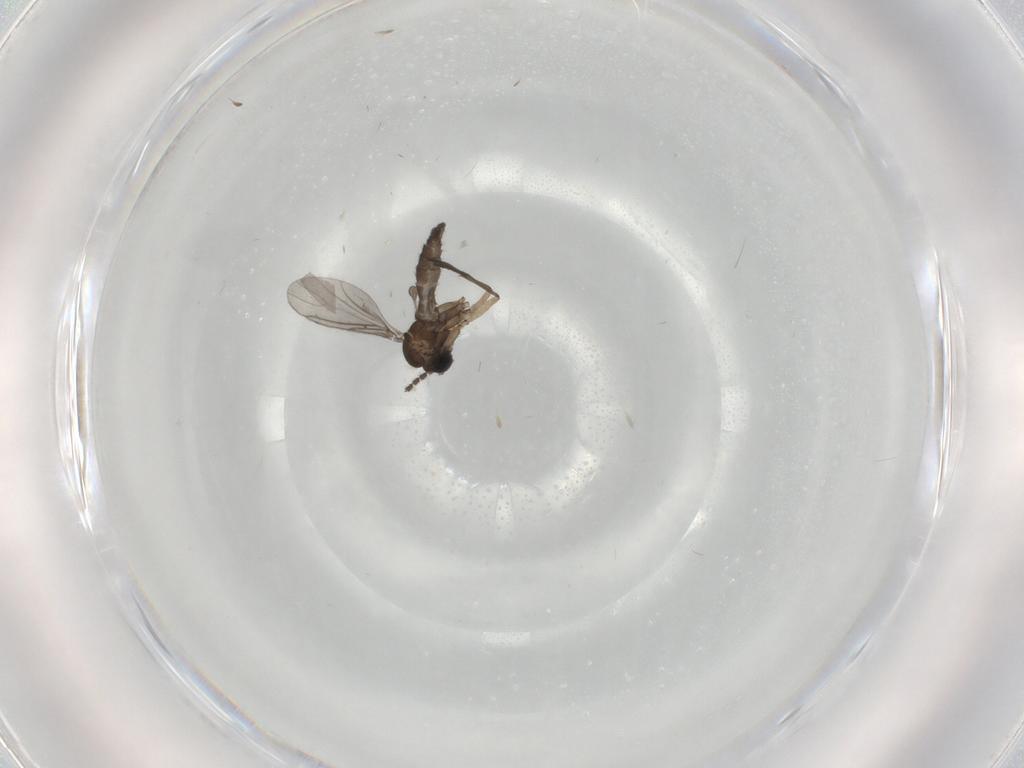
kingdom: Animalia
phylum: Arthropoda
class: Insecta
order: Diptera
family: Sciaridae
